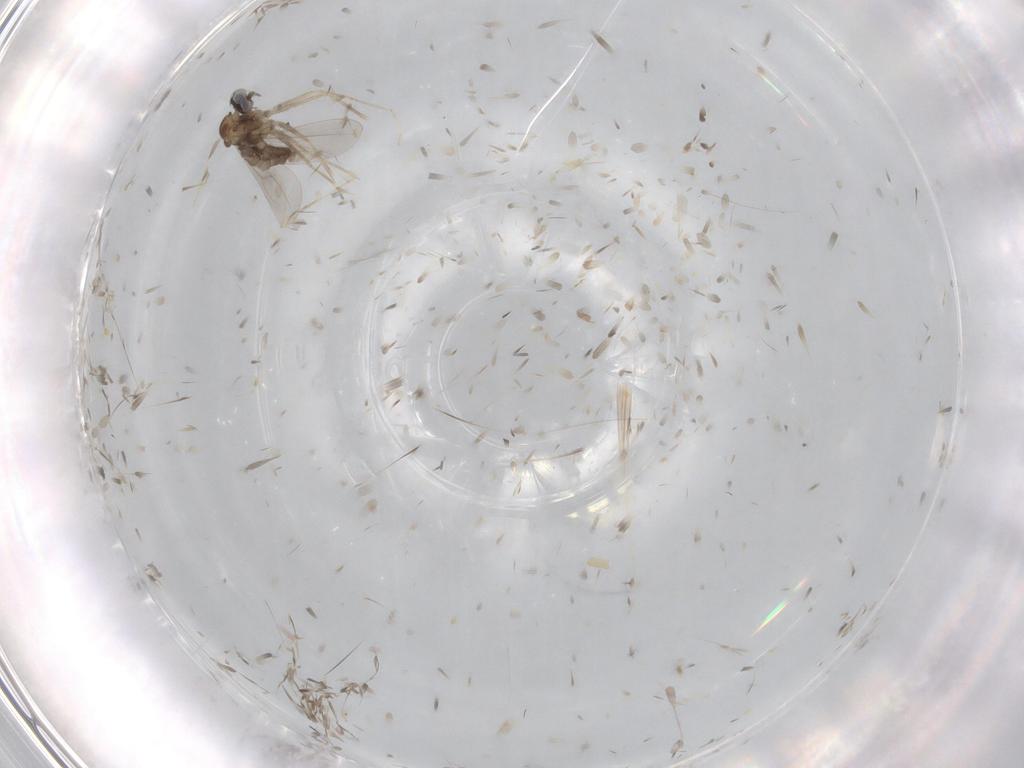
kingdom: Animalia
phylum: Arthropoda
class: Insecta
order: Diptera
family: Cecidomyiidae
